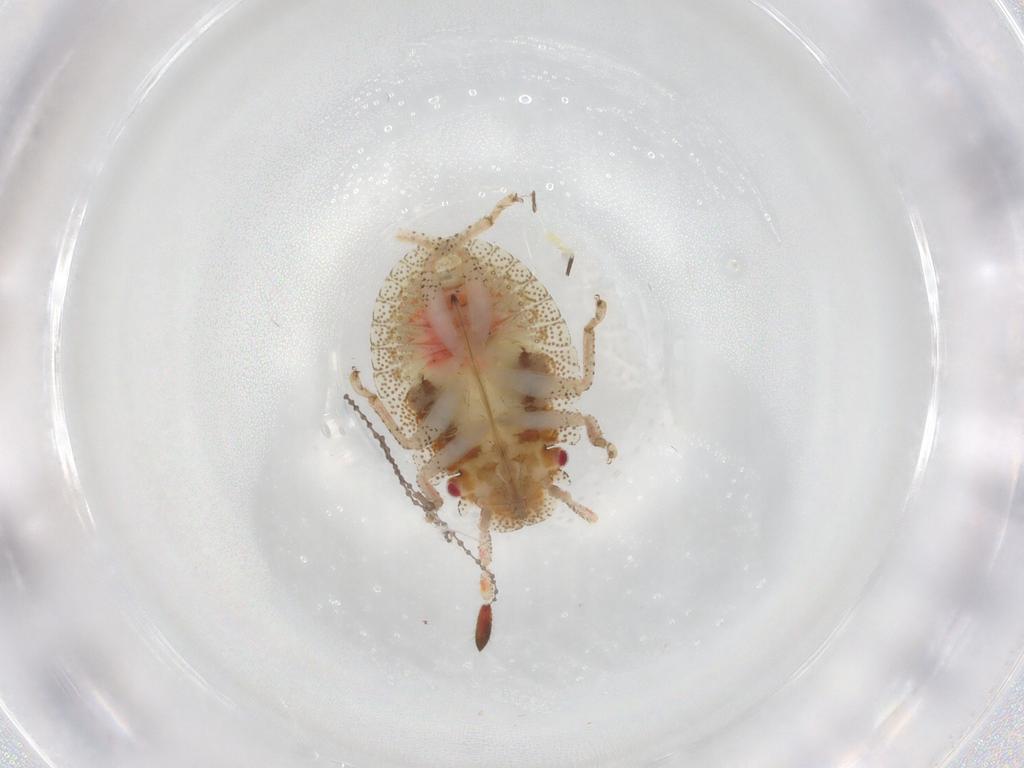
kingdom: Animalia
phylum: Arthropoda
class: Insecta
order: Hemiptera
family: Pentatomidae
